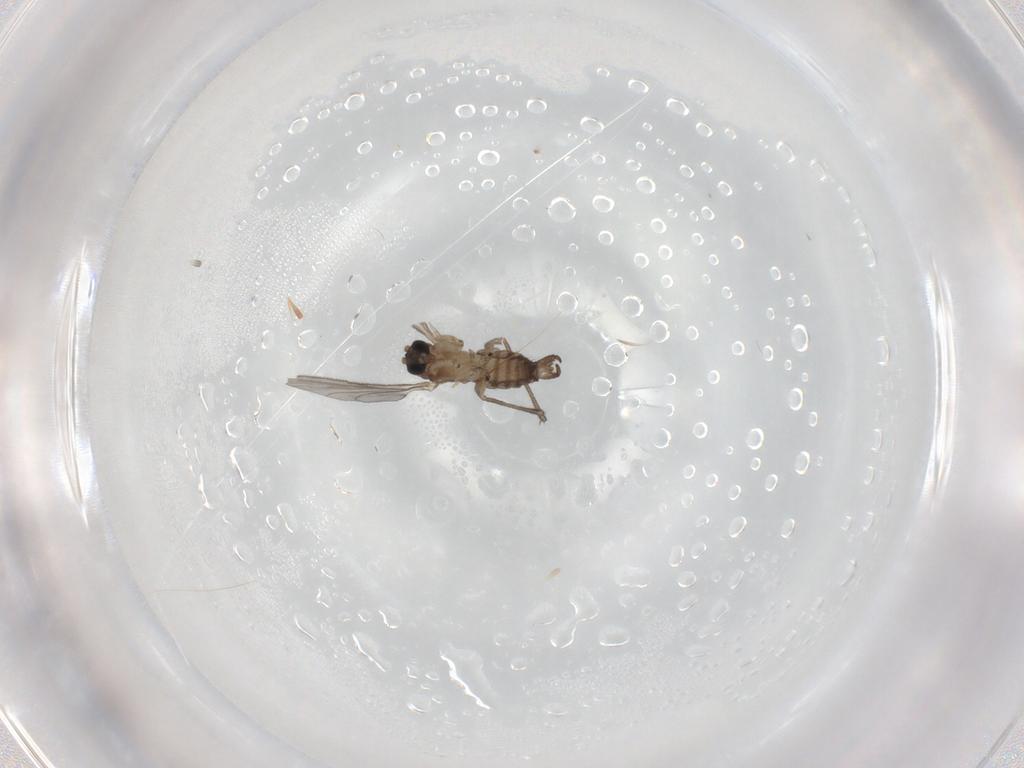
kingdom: Animalia
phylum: Arthropoda
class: Insecta
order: Diptera
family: Sciaridae
